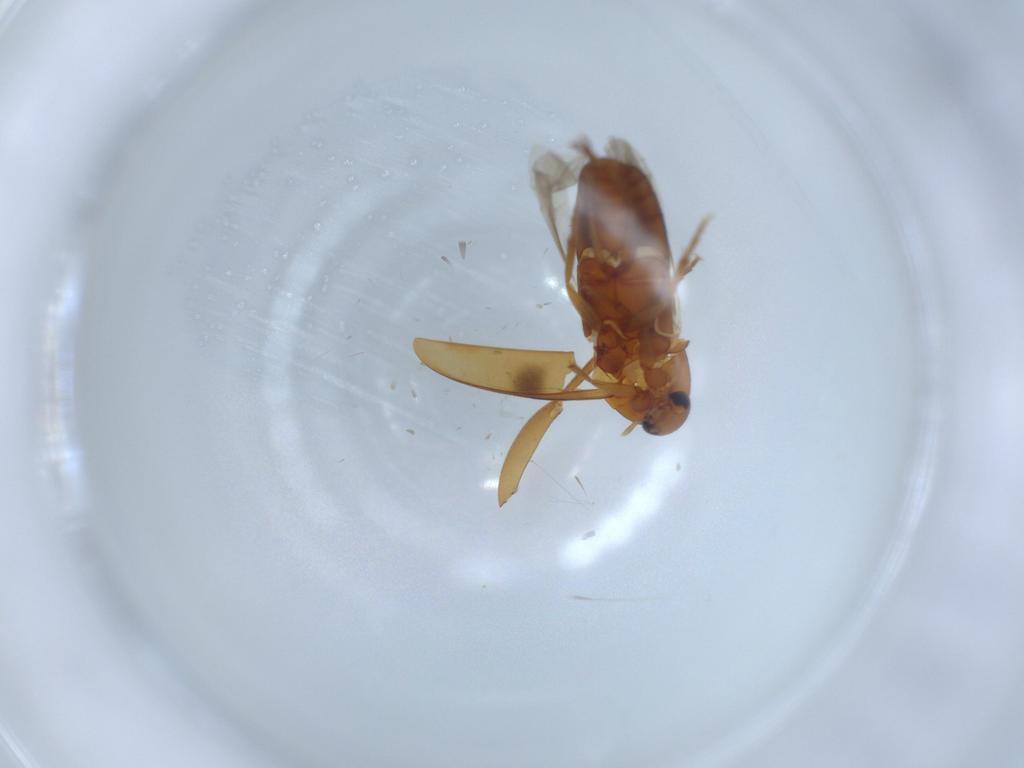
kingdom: Animalia
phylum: Arthropoda
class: Insecta
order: Coleoptera
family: Scraptiidae
